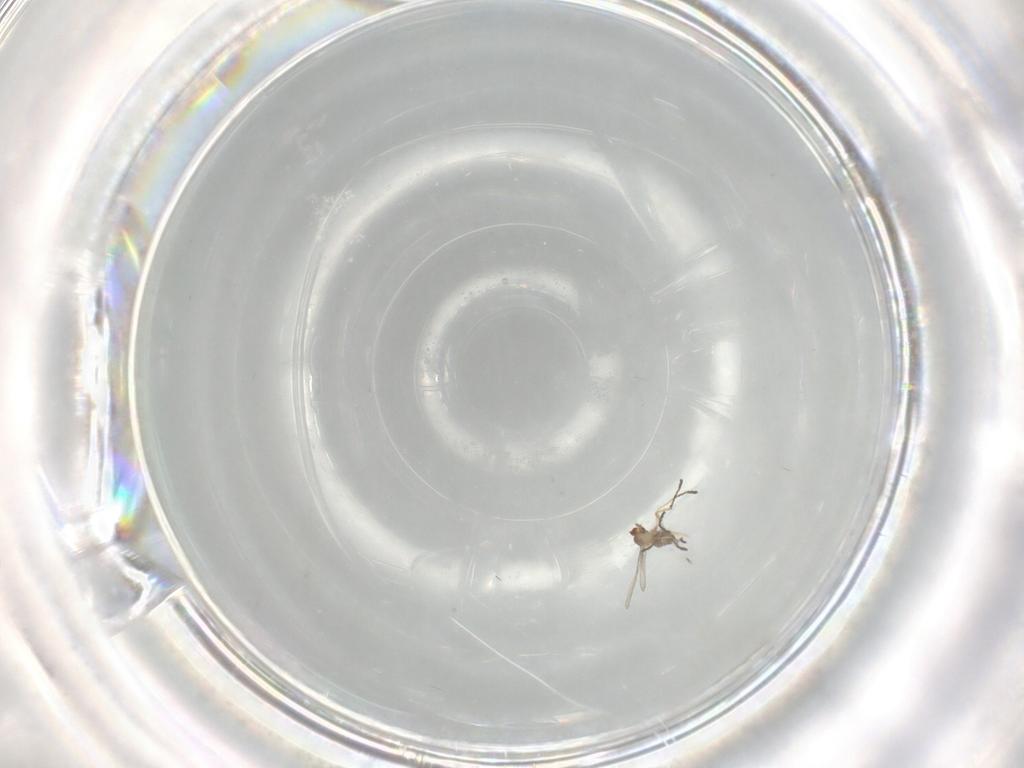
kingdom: Animalia
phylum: Arthropoda
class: Insecta
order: Diptera
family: Cecidomyiidae
